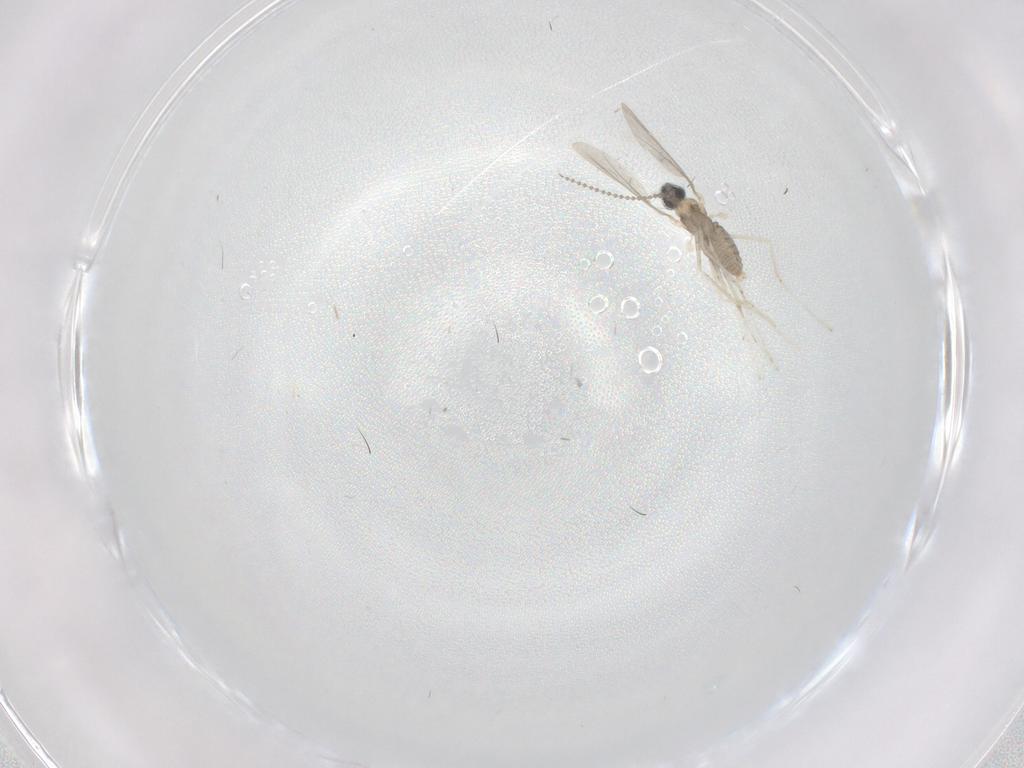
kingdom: Animalia
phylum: Arthropoda
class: Insecta
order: Diptera
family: Cecidomyiidae
